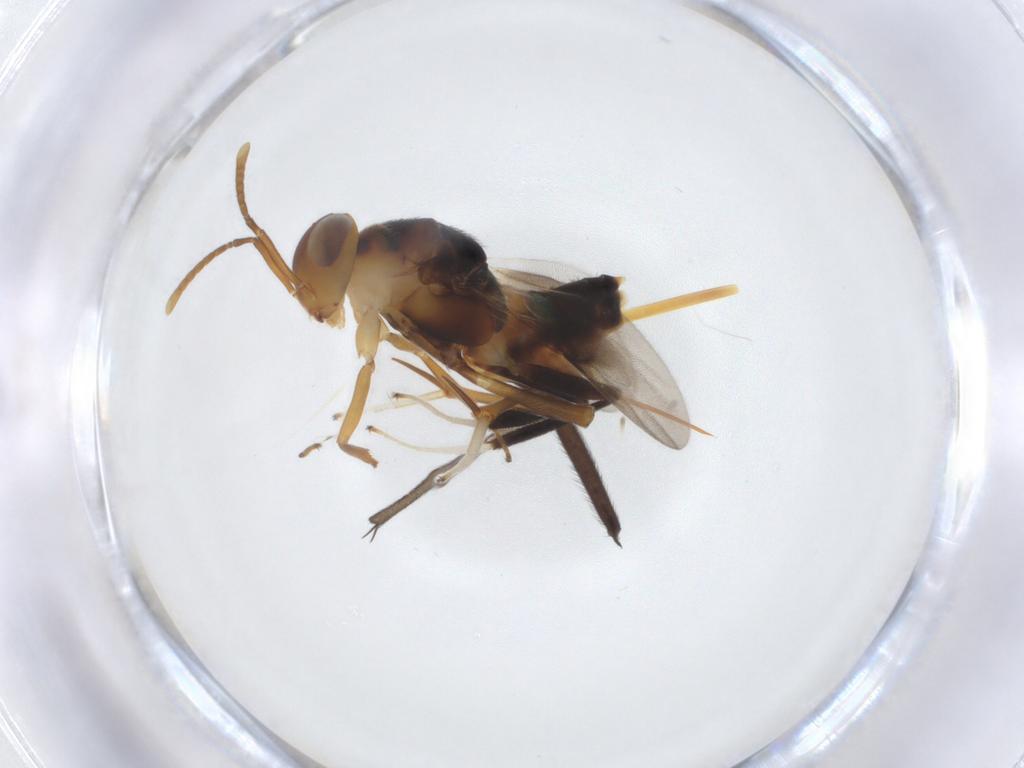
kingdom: Animalia
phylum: Arthropoda
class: Insecta
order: Hymenoptera
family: Encyrtidae
